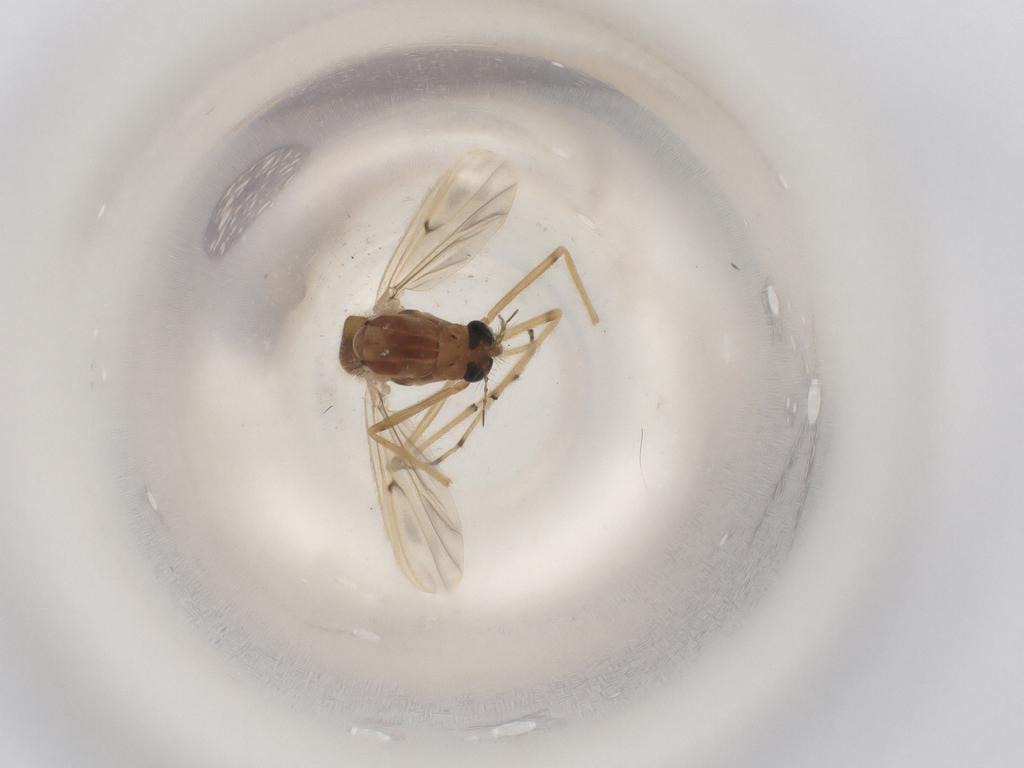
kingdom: Animalia
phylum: Arthropoda
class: Insecta
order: Diptera
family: Chironomidae
